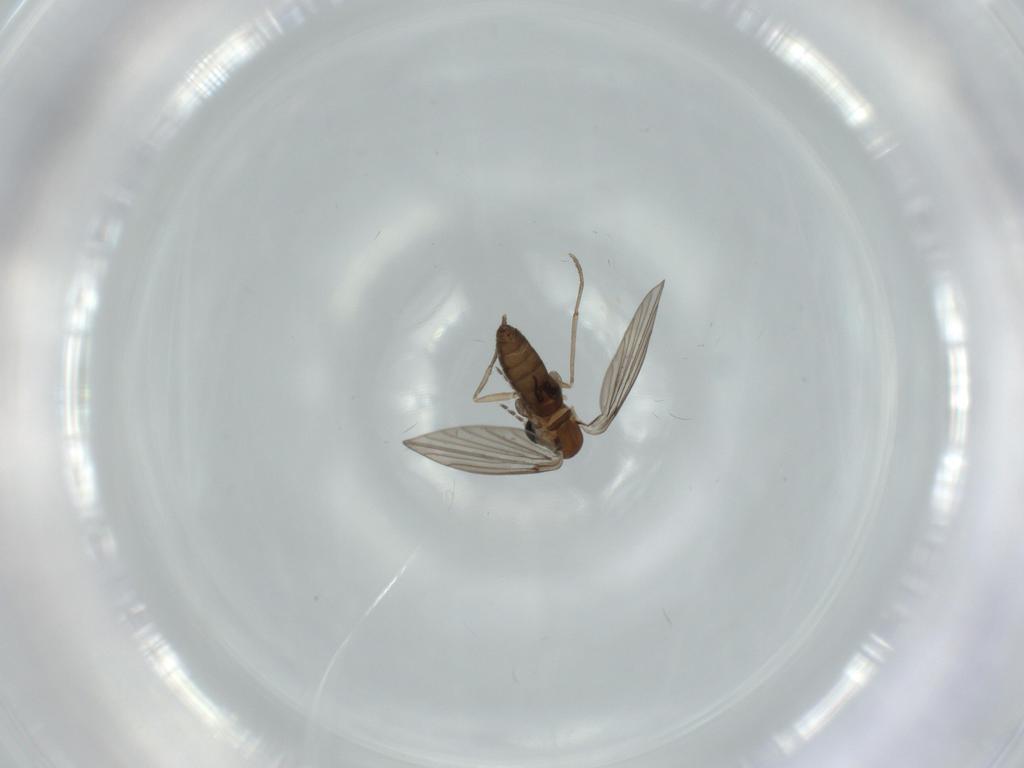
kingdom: Animalia
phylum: Arthropoda
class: Insecta
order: Diptera
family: Psychodidae
